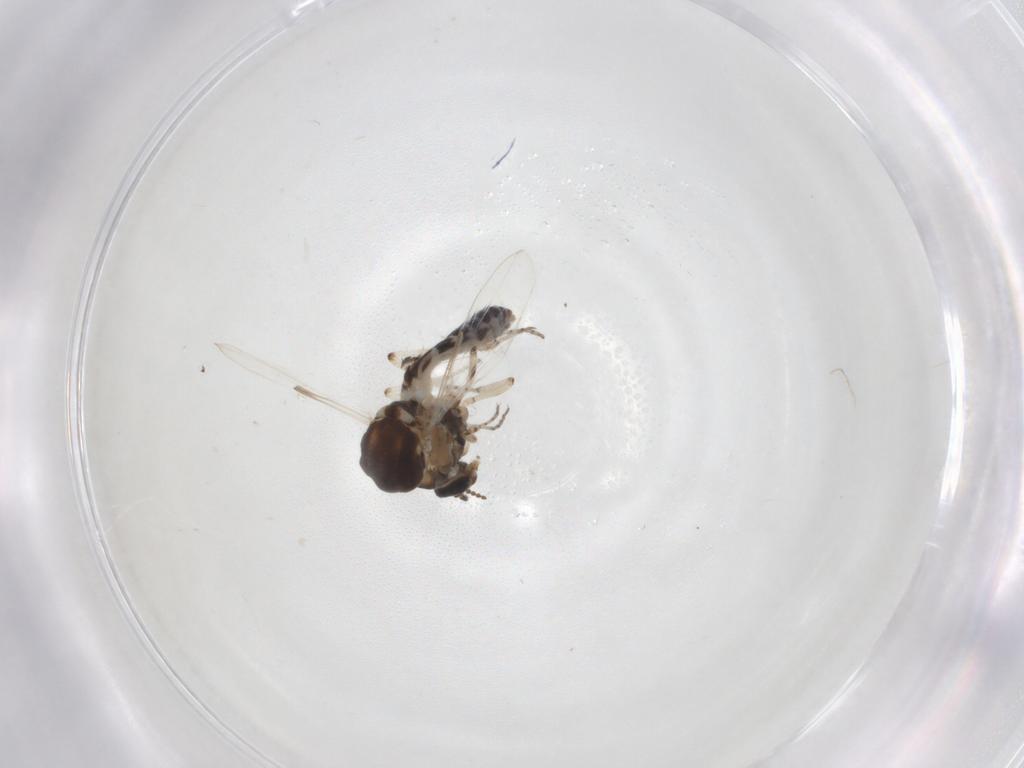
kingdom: Animalia
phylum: Arthropoda
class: Insecta
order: Diptera
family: Ceratopogonidae
